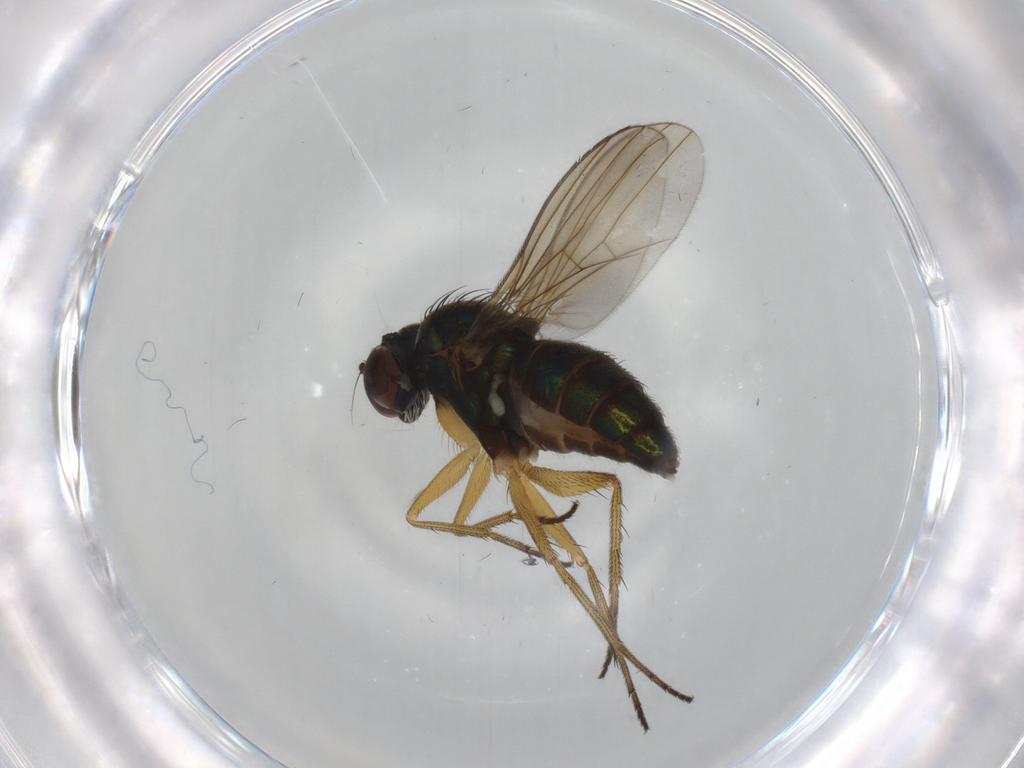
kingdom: Animalia
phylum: Arthropoda
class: Insecta
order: Diptera
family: Dolichopodidae
